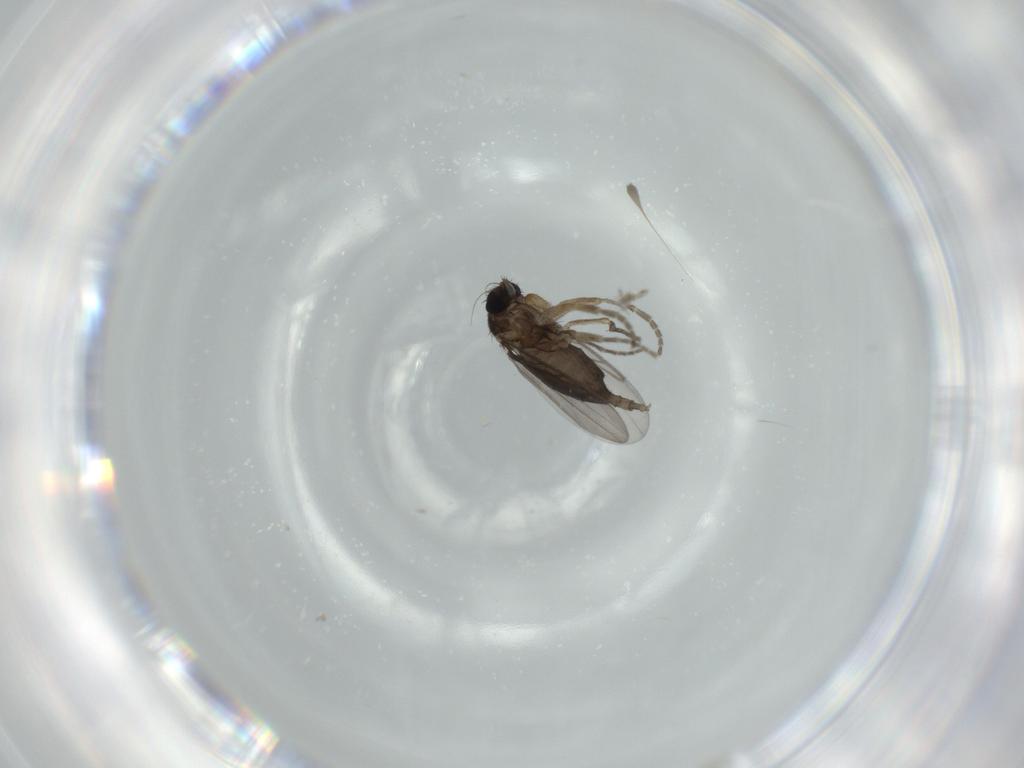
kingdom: Animalia
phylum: Arthropoda
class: Insecta
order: Diptera
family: Phoridae
